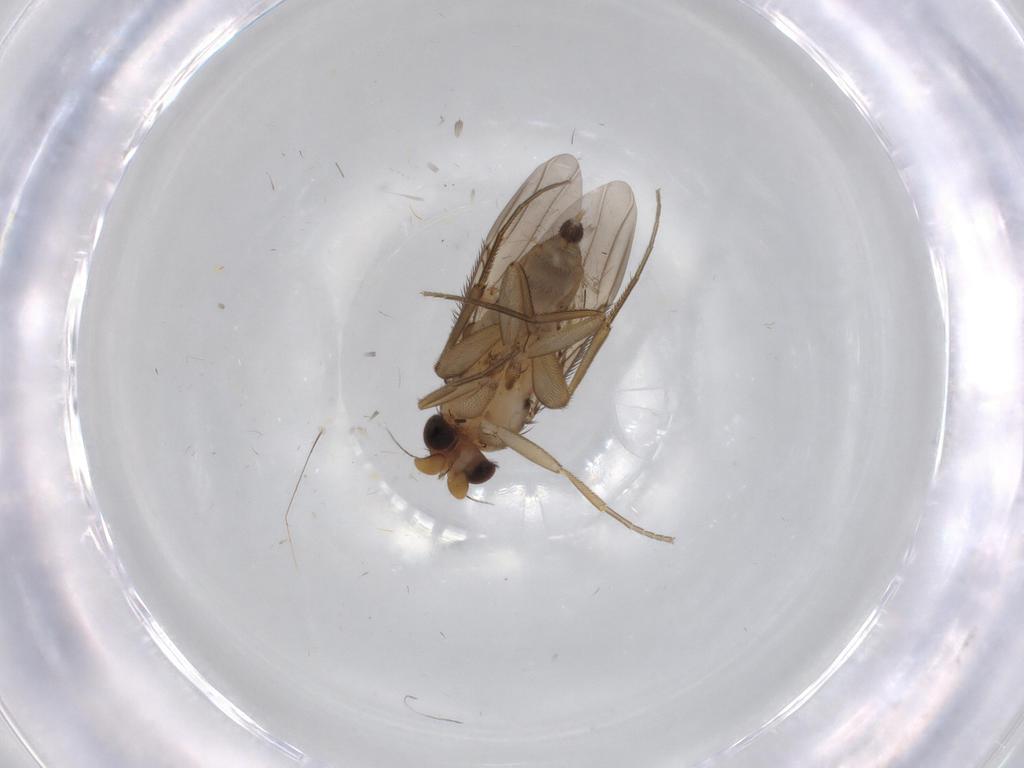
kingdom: Animalia
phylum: Arthropoda
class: Insecta
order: Diptera
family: Phoridae
